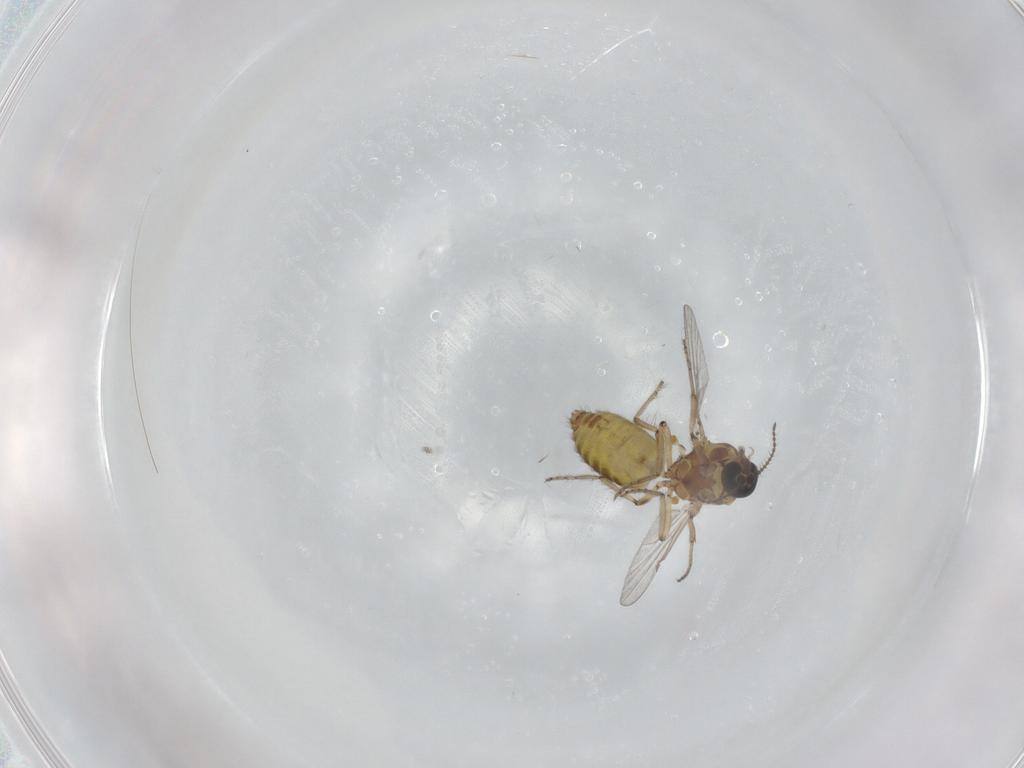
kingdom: Animalia
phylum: Arthropoda
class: Insecta
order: Diptera
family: Ceratopogonidae
